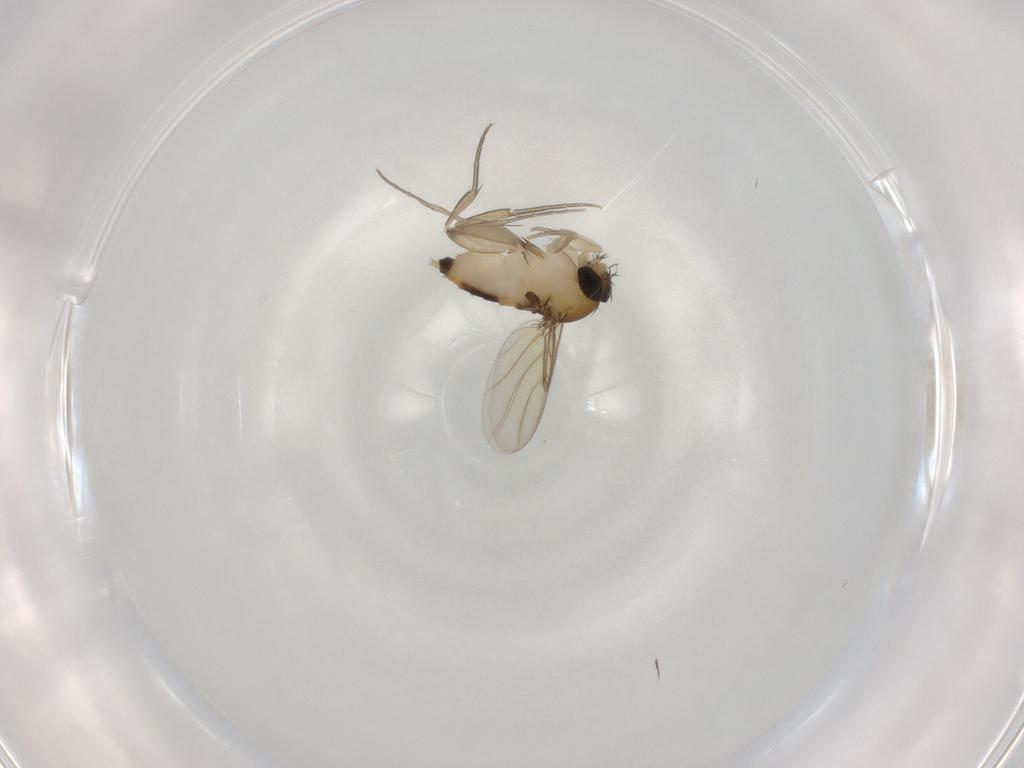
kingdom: Animalia
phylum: Arthropoda
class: Insecta
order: Diptera
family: Phoridae
